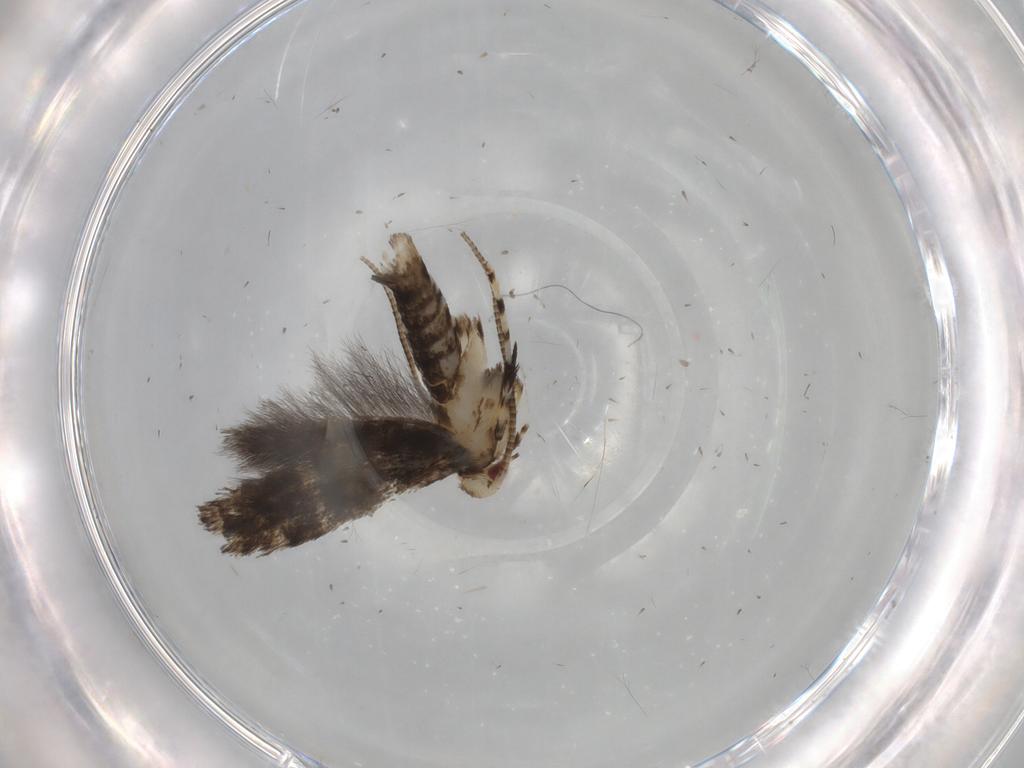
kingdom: Animalia
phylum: Arthropoda
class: Insecta
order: Lepidoptera
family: Gracillariidae
